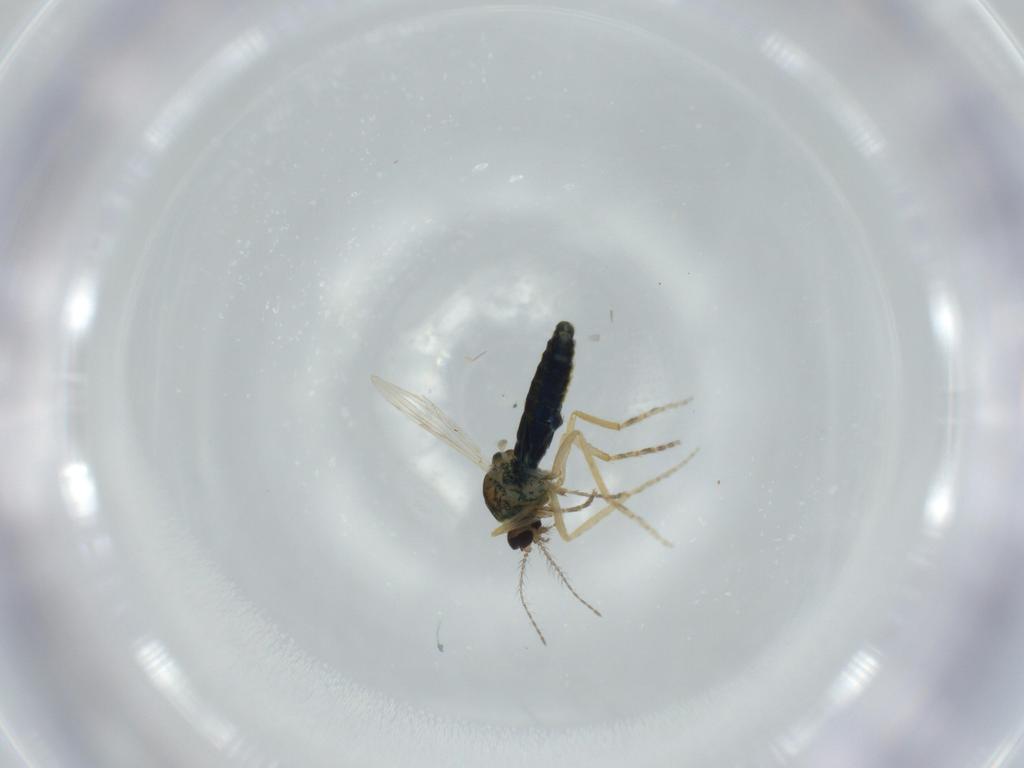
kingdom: Animalia
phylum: Arthropoda
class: Insecta
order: Diptera
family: Ceratopogonidae
